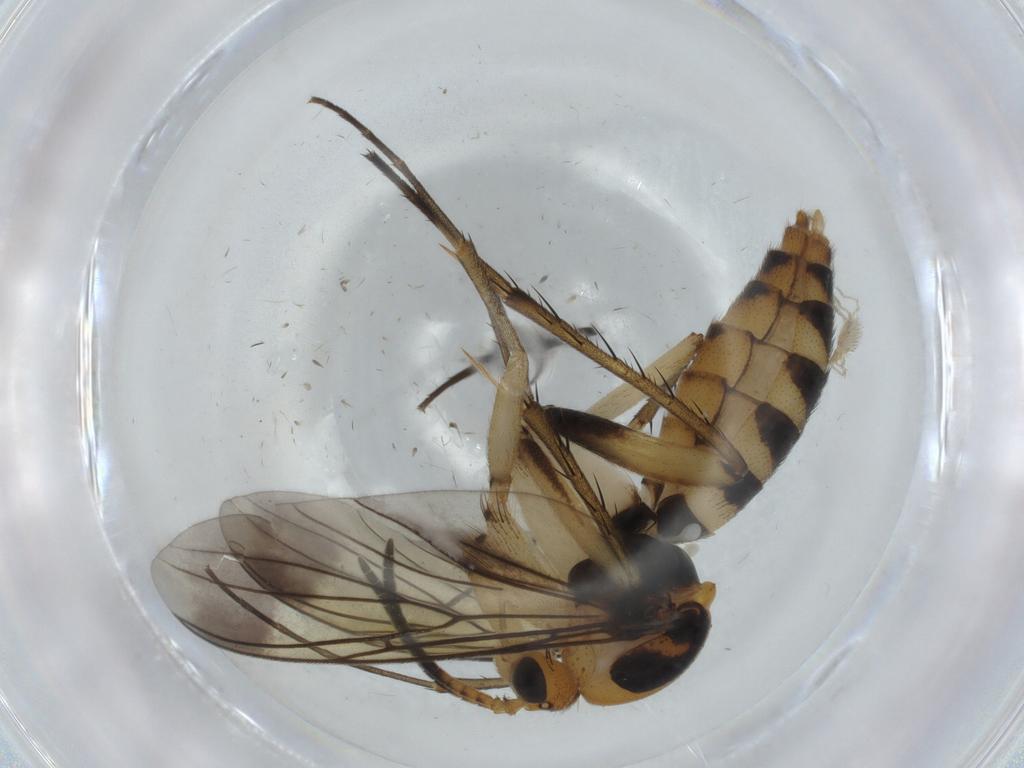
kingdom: Animalia
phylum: Arthropoda
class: Insecta
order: Diptera
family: Mycetophilidae
